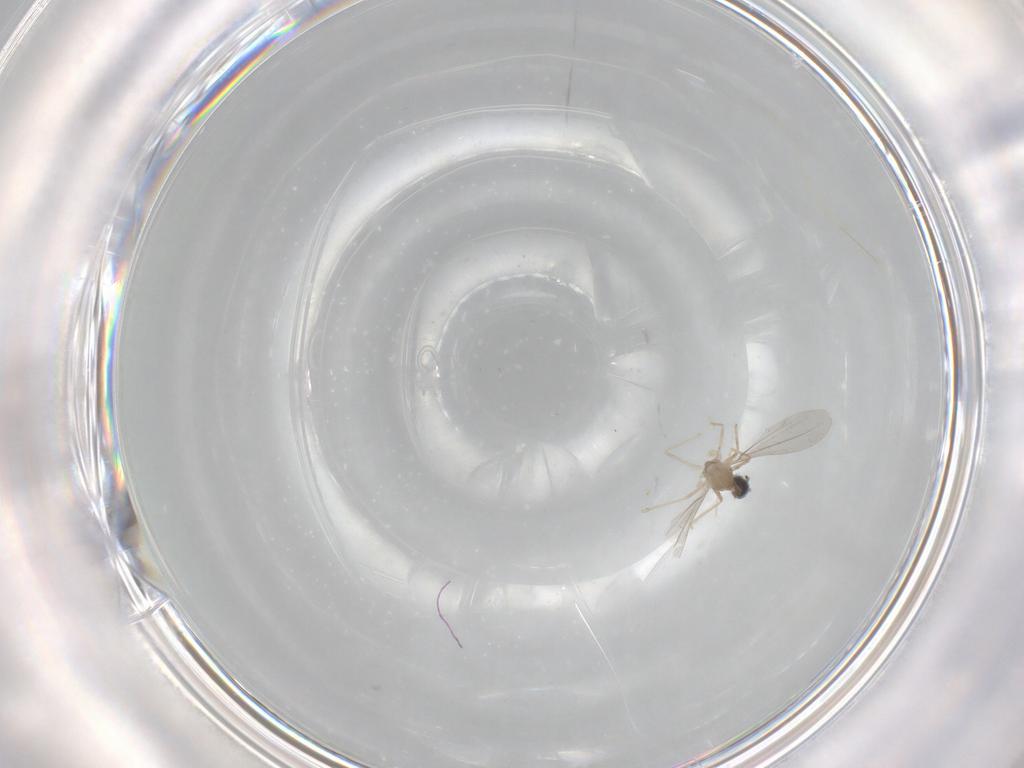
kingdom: Animalia
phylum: Arthropoda
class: Insecta
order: Diptera
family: Cecidomyiidae
